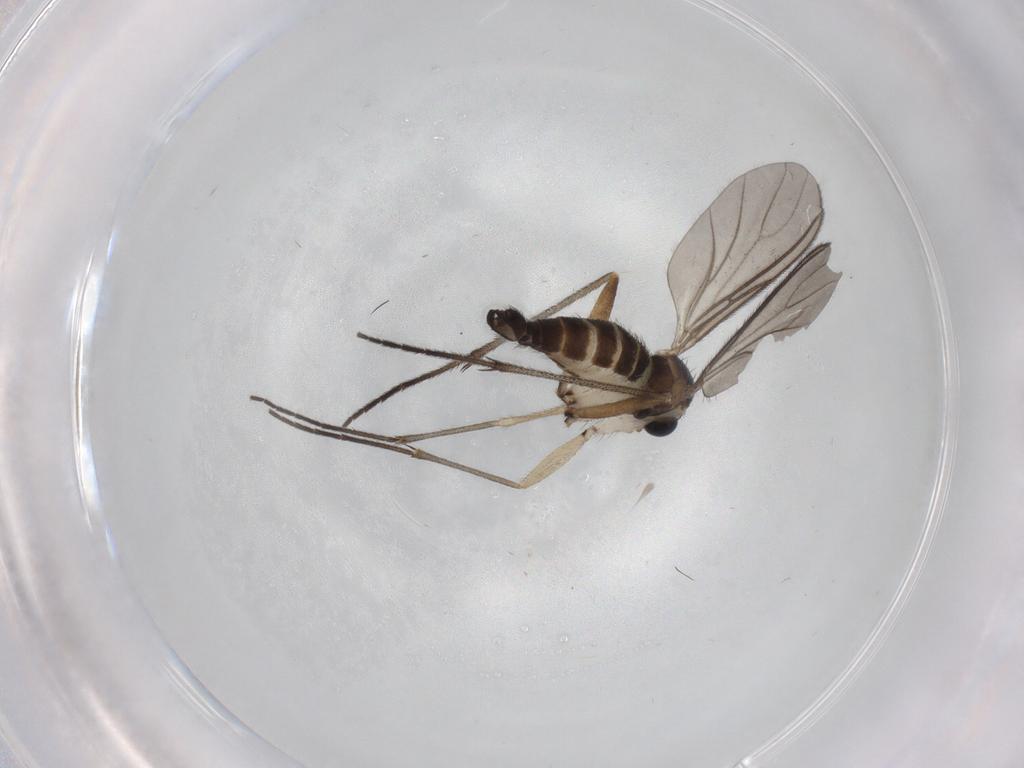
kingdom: Animalia
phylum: Arthropoda
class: Insecta
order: Diptera
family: Sciaridae
